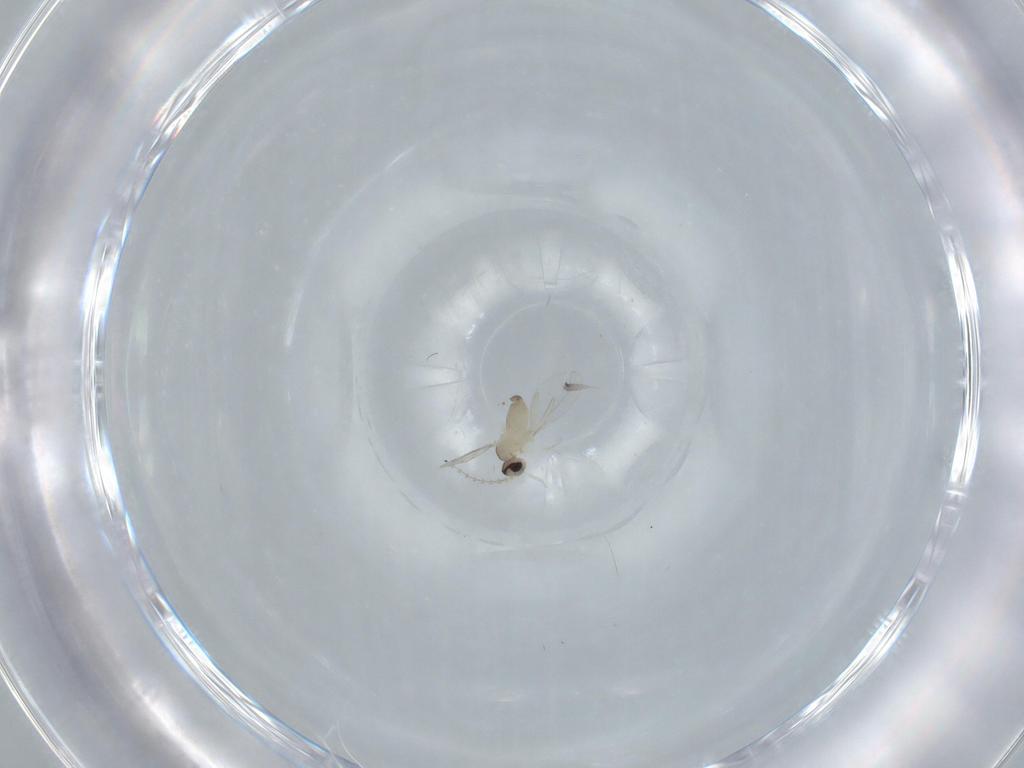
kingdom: Animalia
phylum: Arthropoda
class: Insecta
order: Diptera
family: Cecidomyiidae
